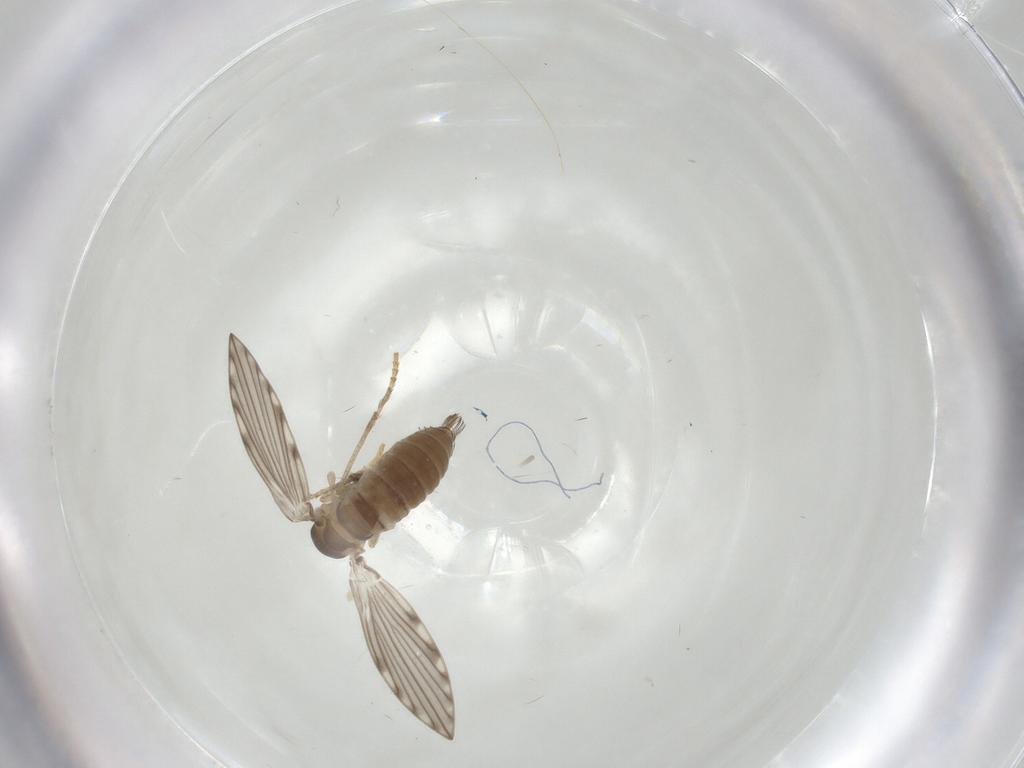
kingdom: Animalia
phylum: Arthropoda
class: Insecta
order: Diptera
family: Psychodidae
